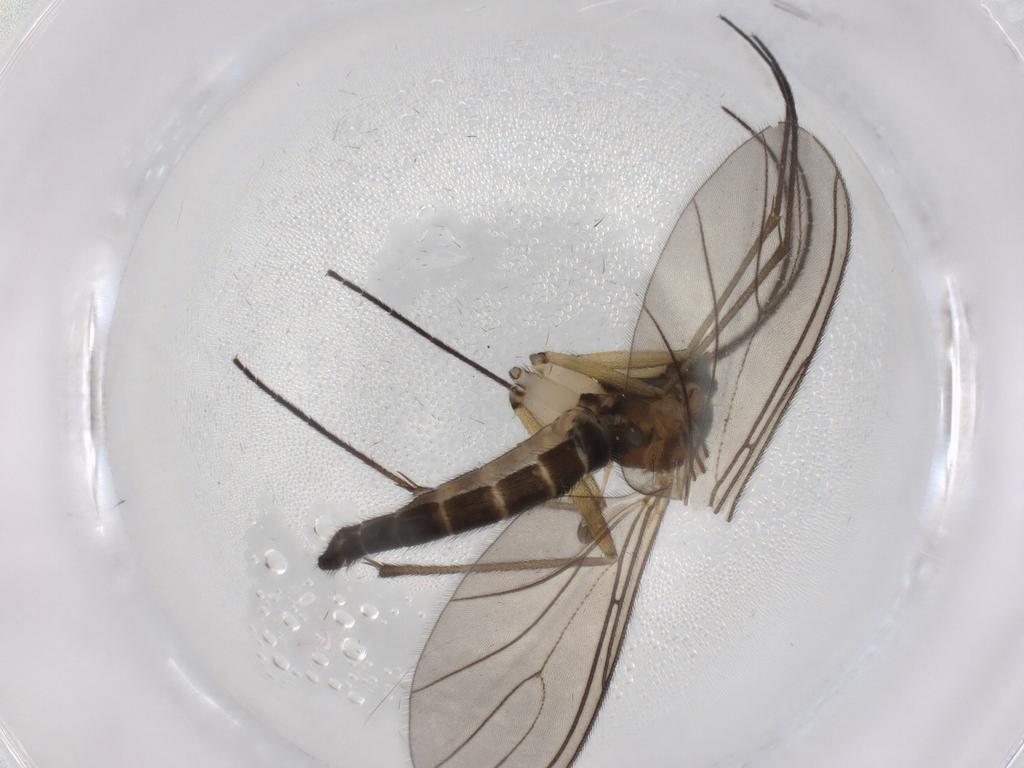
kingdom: Animalia
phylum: Arthropoda
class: Insecta
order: Diptera
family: Sciaridae
